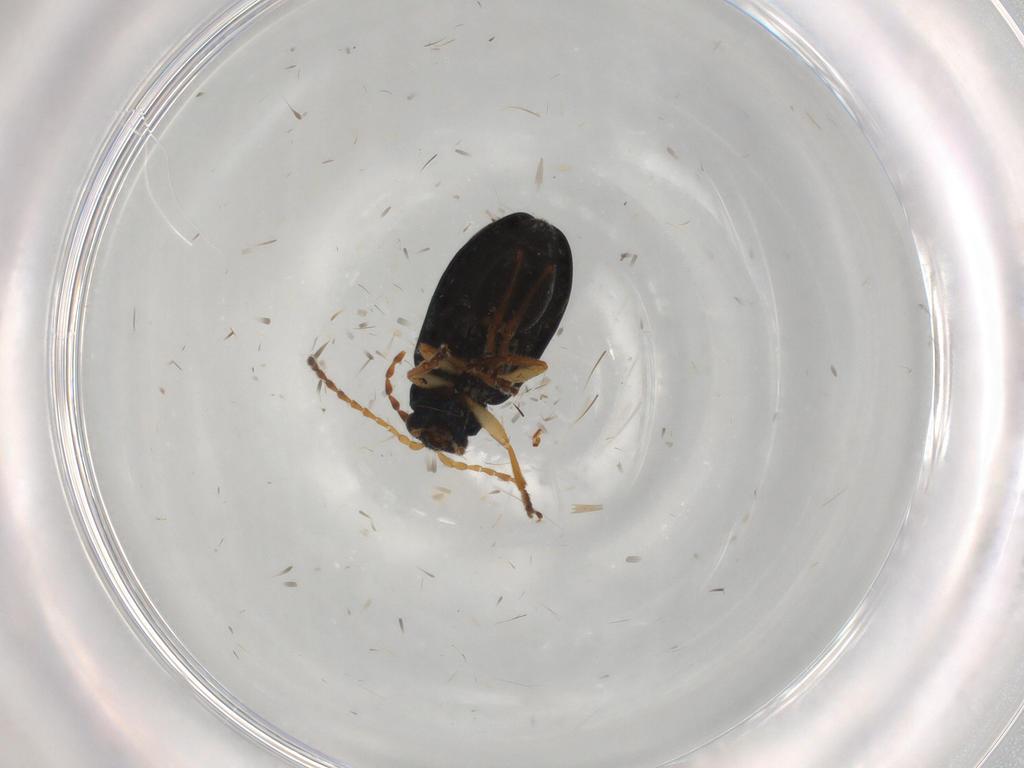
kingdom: Animalia
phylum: Arthropoda
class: Insecta
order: Coleoptera
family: Chrysomelidae
